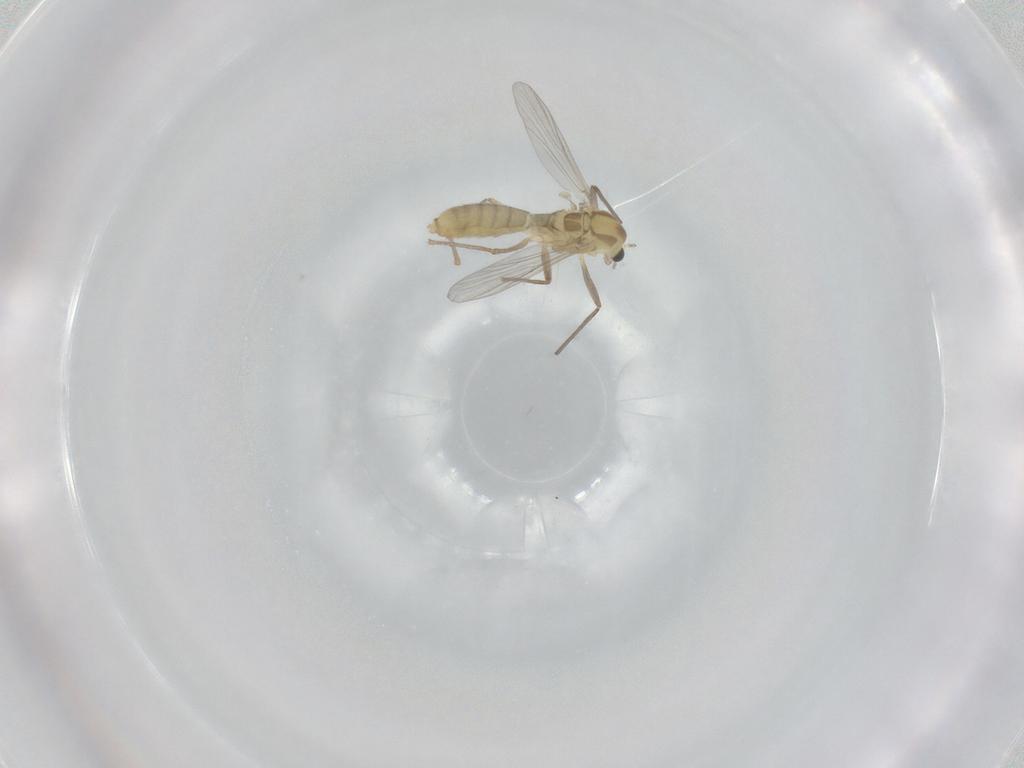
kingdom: Animalia
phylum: Arthropoda
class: Insecta
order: Diptera
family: Chironomidae
